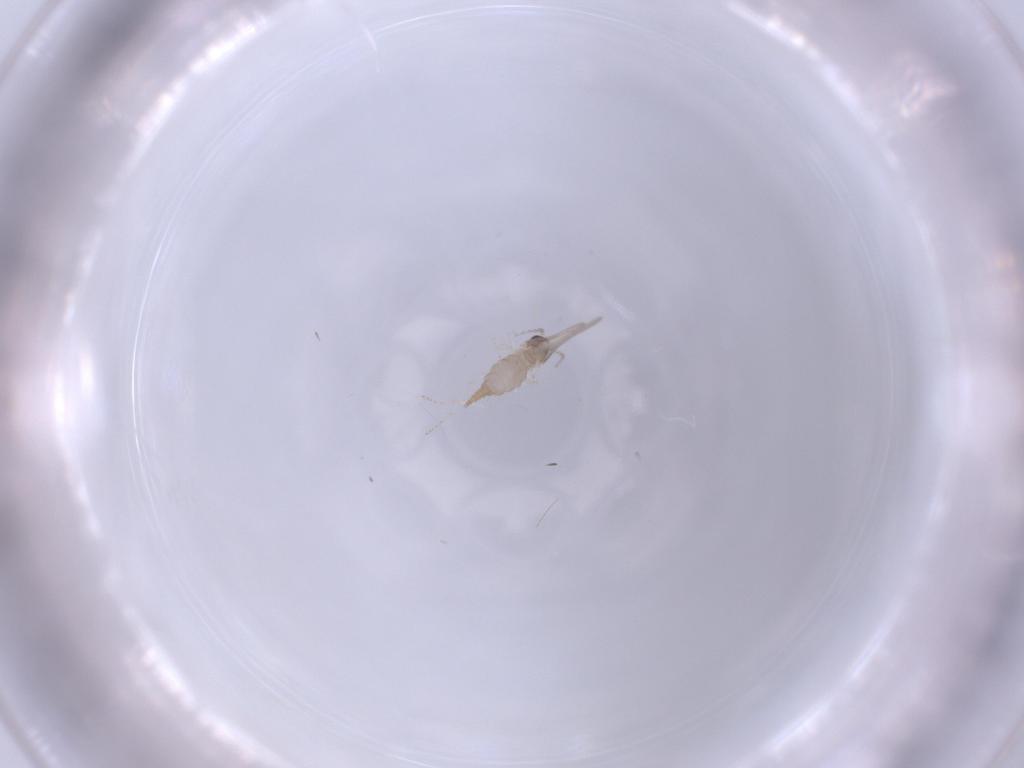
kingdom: Animalia
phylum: Arthropoda
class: Insecta
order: Diptera
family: Cecidomyiidae
